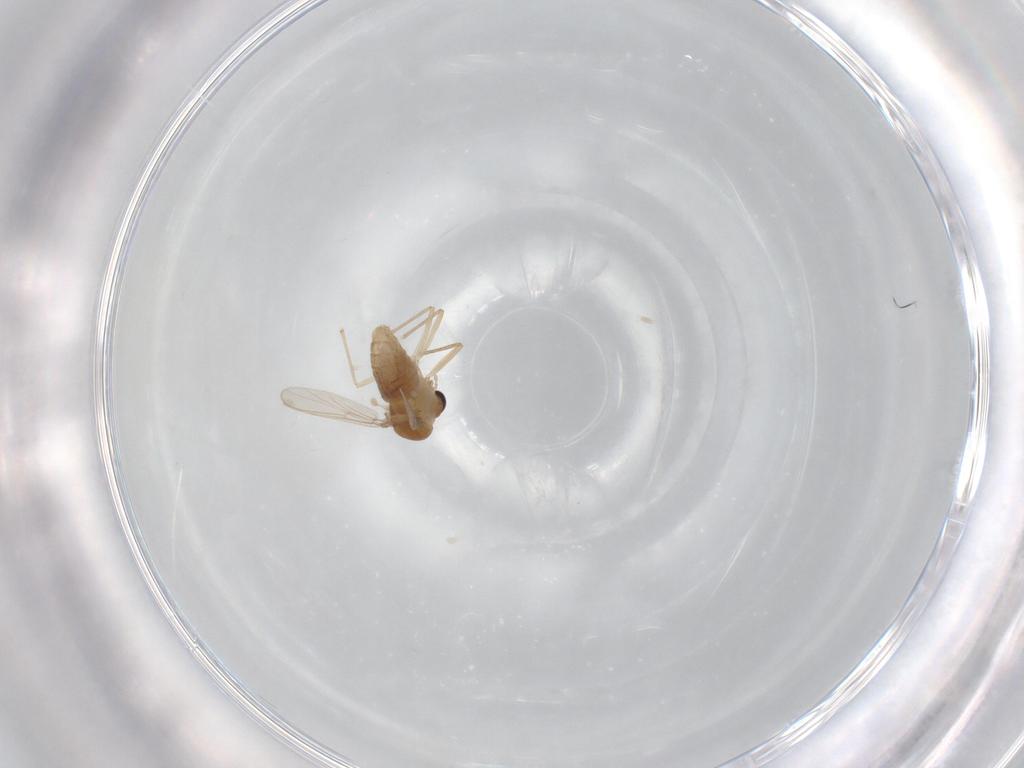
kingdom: Animalia
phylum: Arthropoda
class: Insecta
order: Diptera
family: Chironomidae
